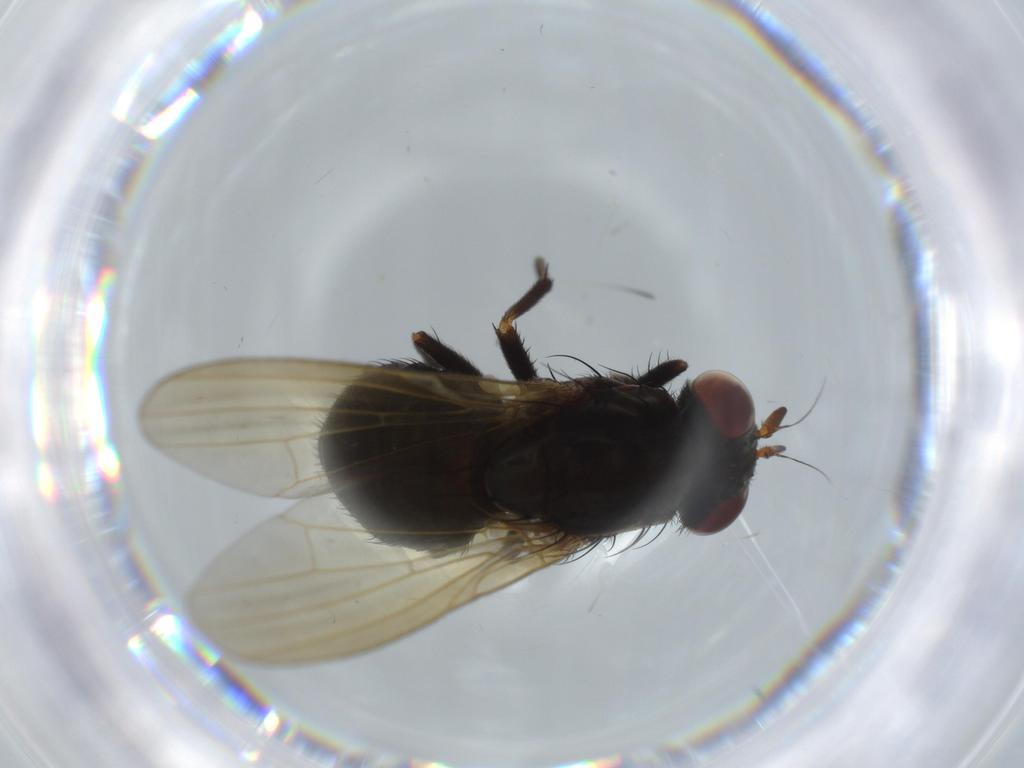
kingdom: Animalia
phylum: Arthropoda
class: Insecta
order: Diptera
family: Lauxaniidae
